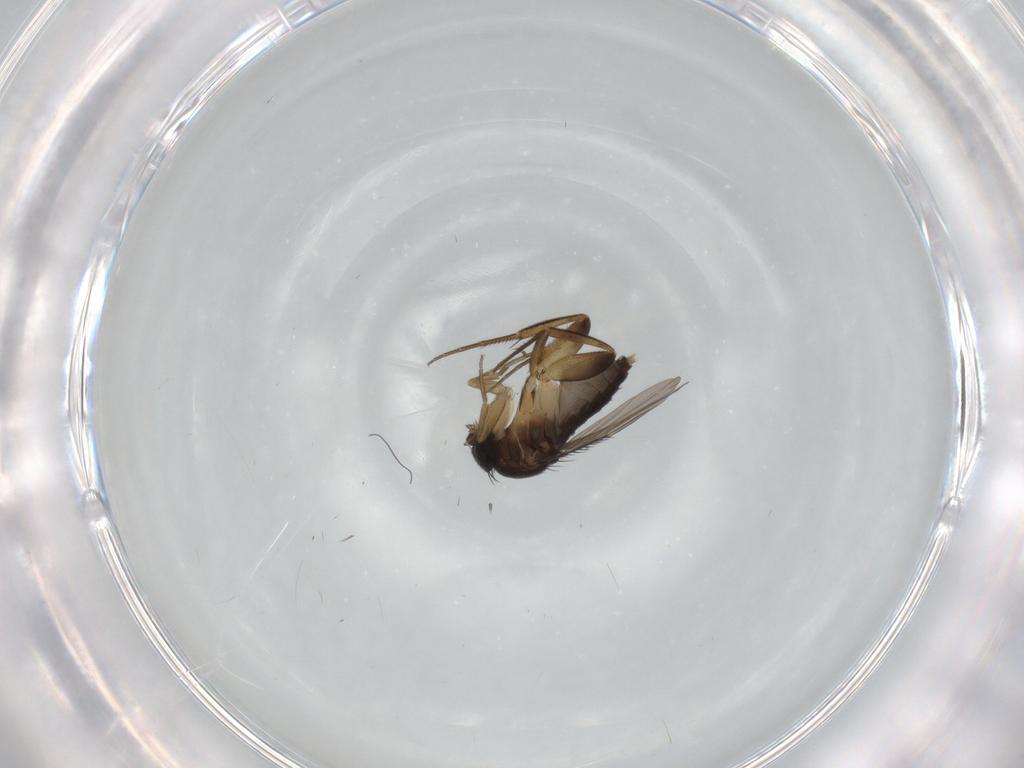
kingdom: Animalia
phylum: Arthropoda
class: Insecta
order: Diptera
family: Phoridae
